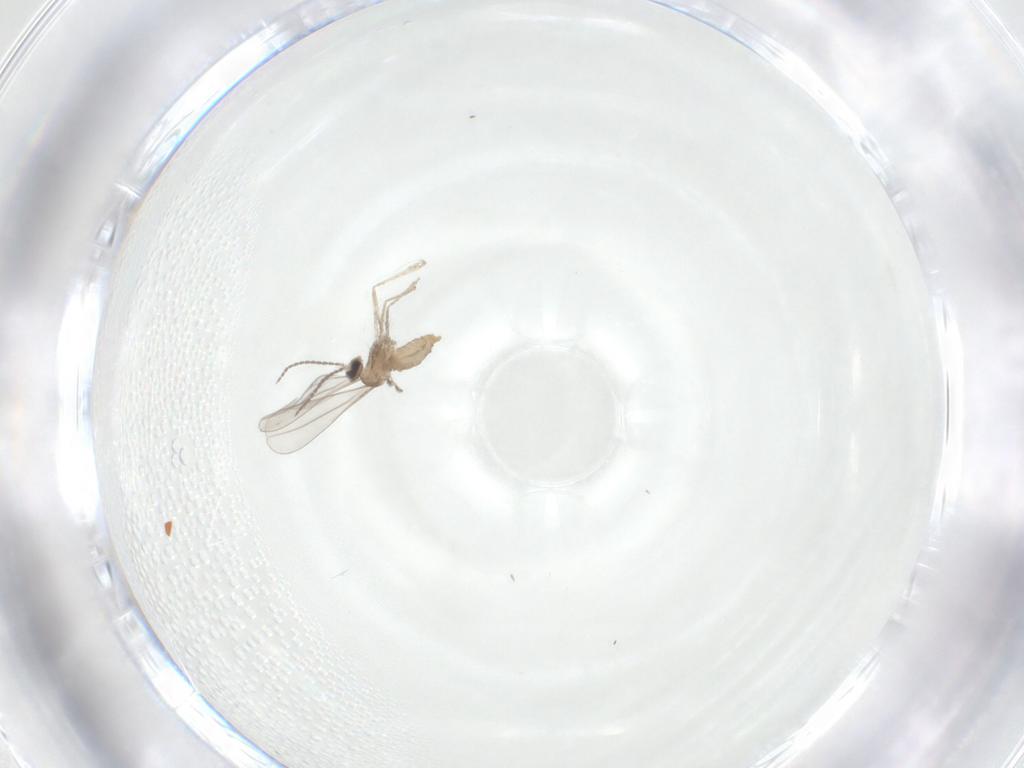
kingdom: Animalia
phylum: Arthropoda
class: Insecta
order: Diptera
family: Cecidomyiidae
